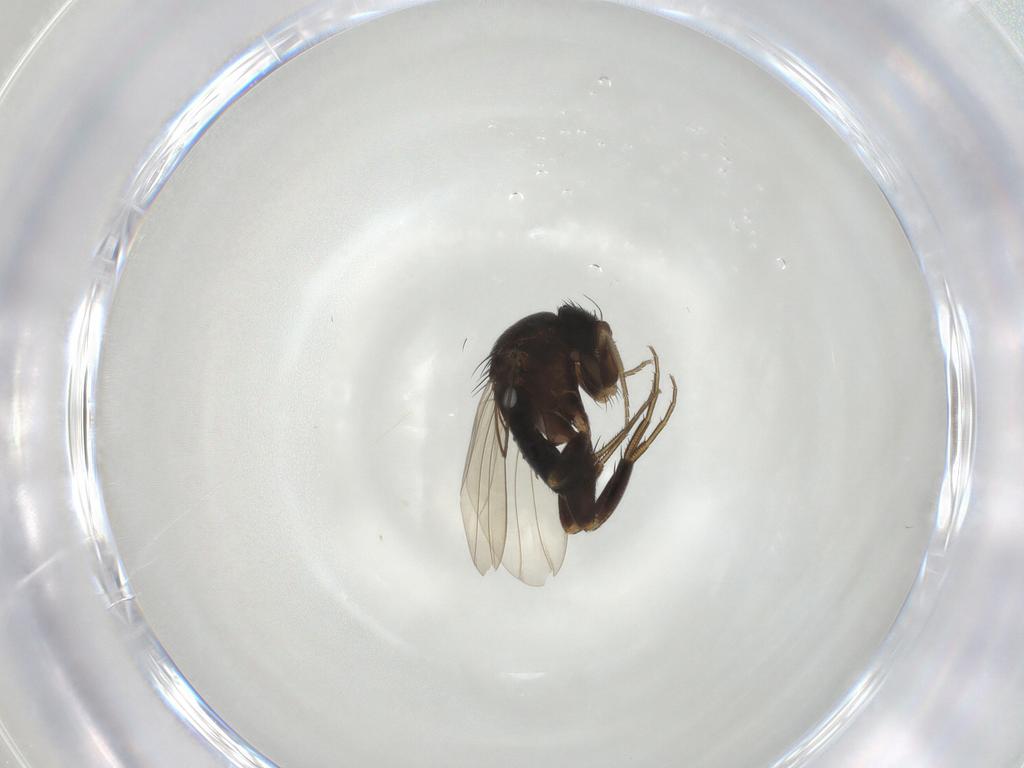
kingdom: Animalia
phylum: Arthropoda
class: Insecta
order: Diptera
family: Phoridae
